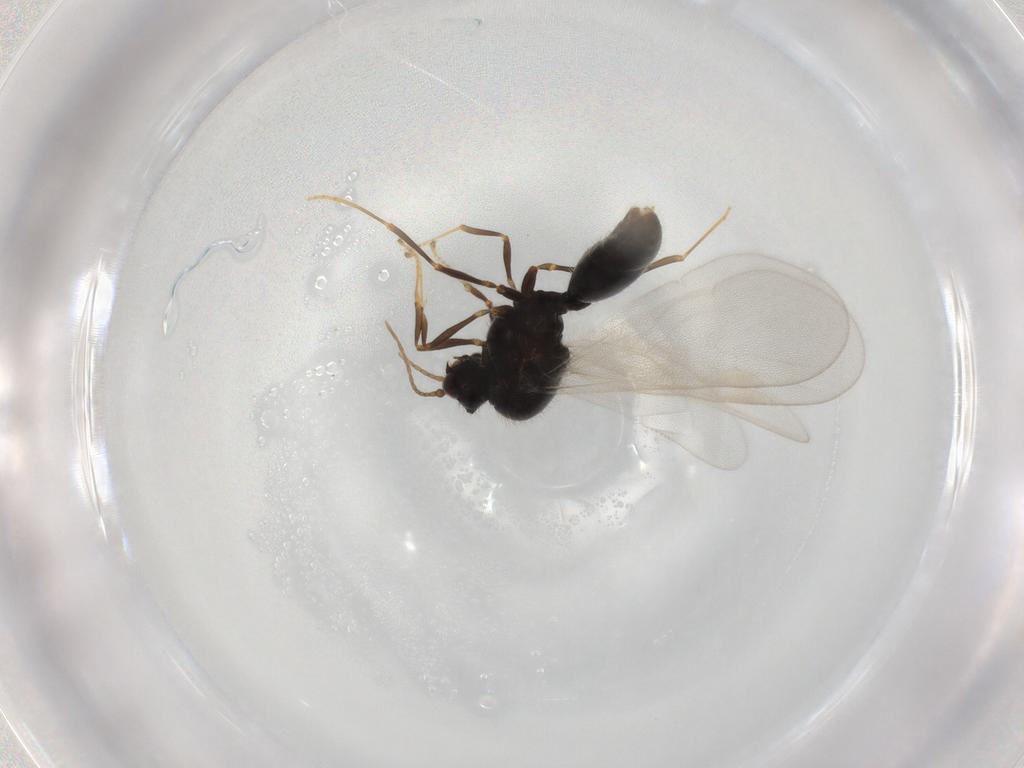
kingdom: Animalia
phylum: Arthropoda
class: Insecta
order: Hymenoptera
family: Formicidae
